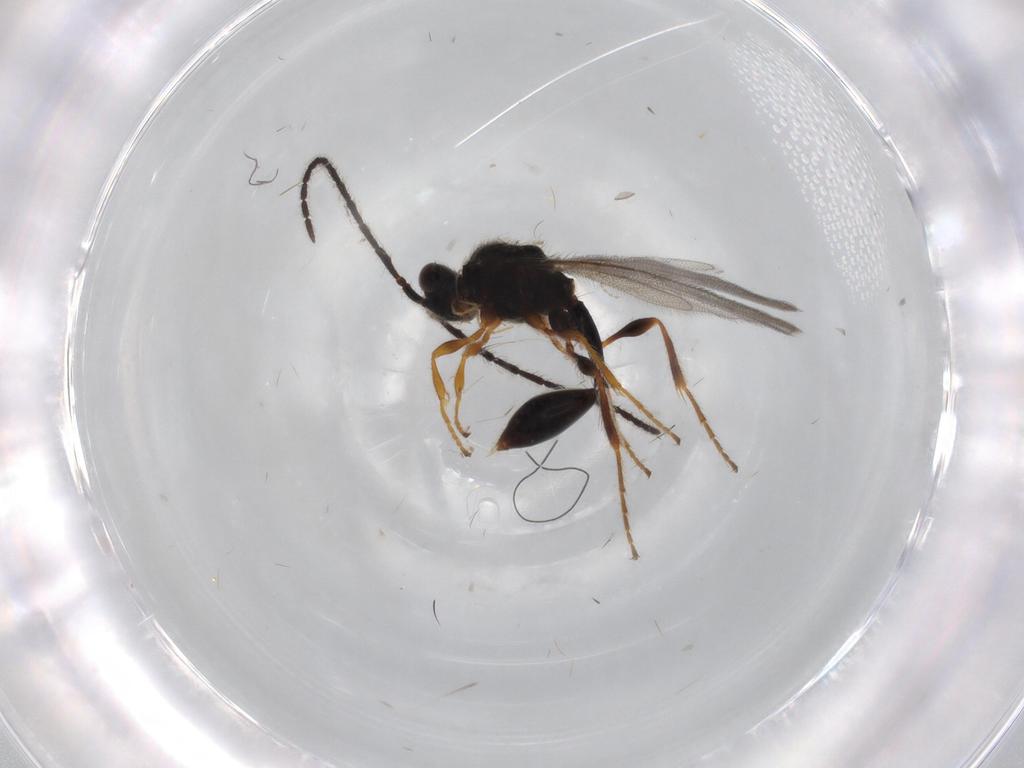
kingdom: Animalia
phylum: Arthropoda
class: Insecta
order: Hymenoptera
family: Diapriidae
